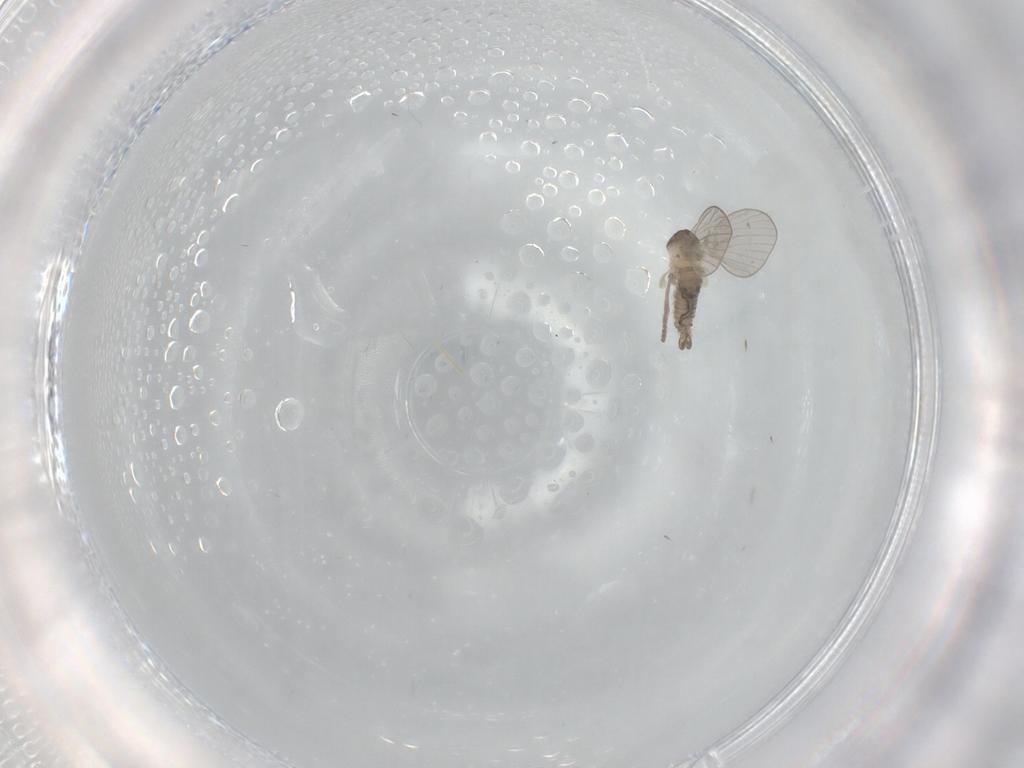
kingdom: Animalia
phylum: Arthropoda
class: Insecta
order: Diptera
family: Psychodidae
